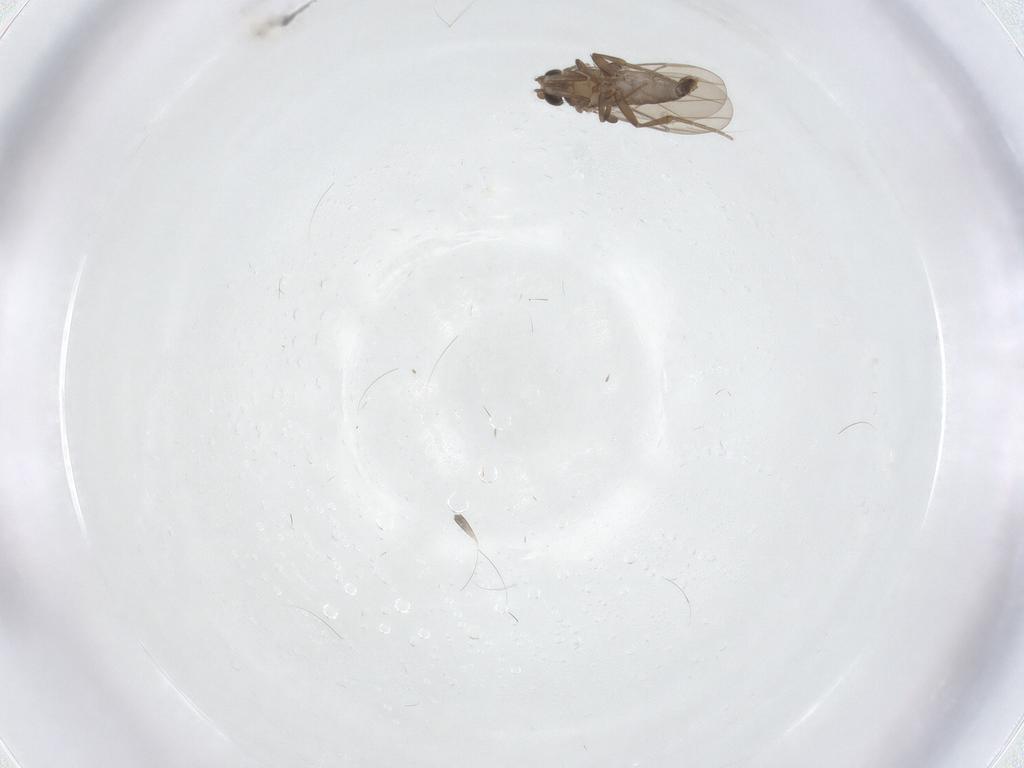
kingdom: Animalia
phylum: Arthropoda
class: Insecta
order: Diptera
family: Phoridae
